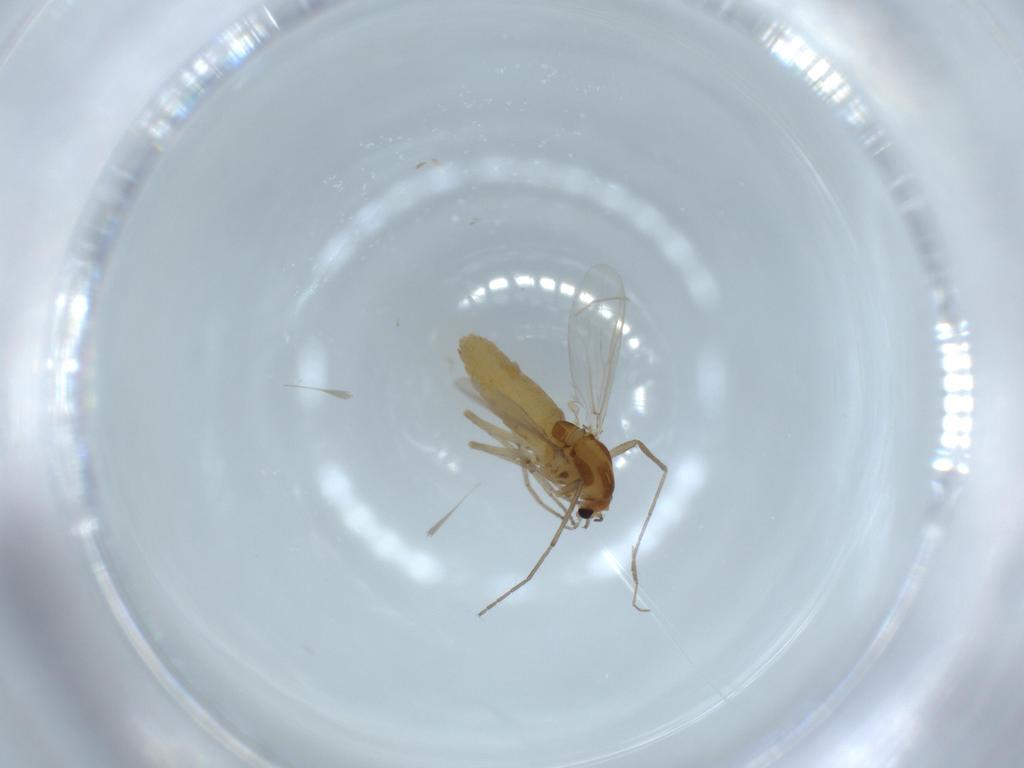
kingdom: Animalia
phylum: Arthropoda
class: Insecta
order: Diptera
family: Chironomidae
